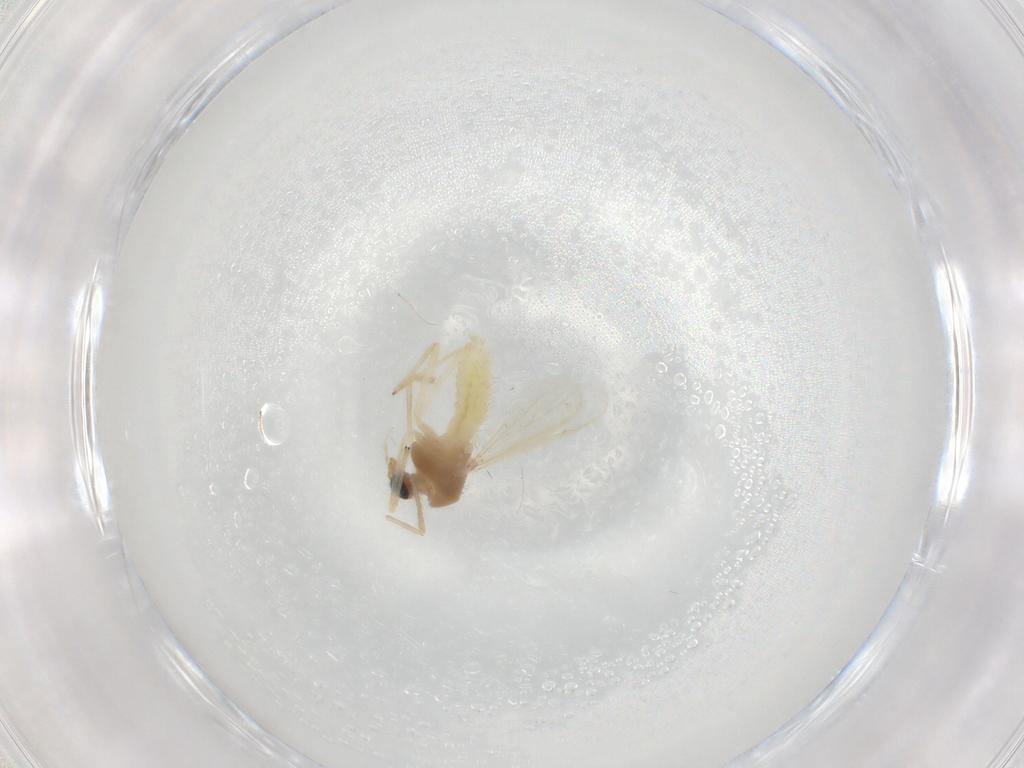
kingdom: Animalia
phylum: Arthropoda
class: Insecta
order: Diptera
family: Chironomidae
